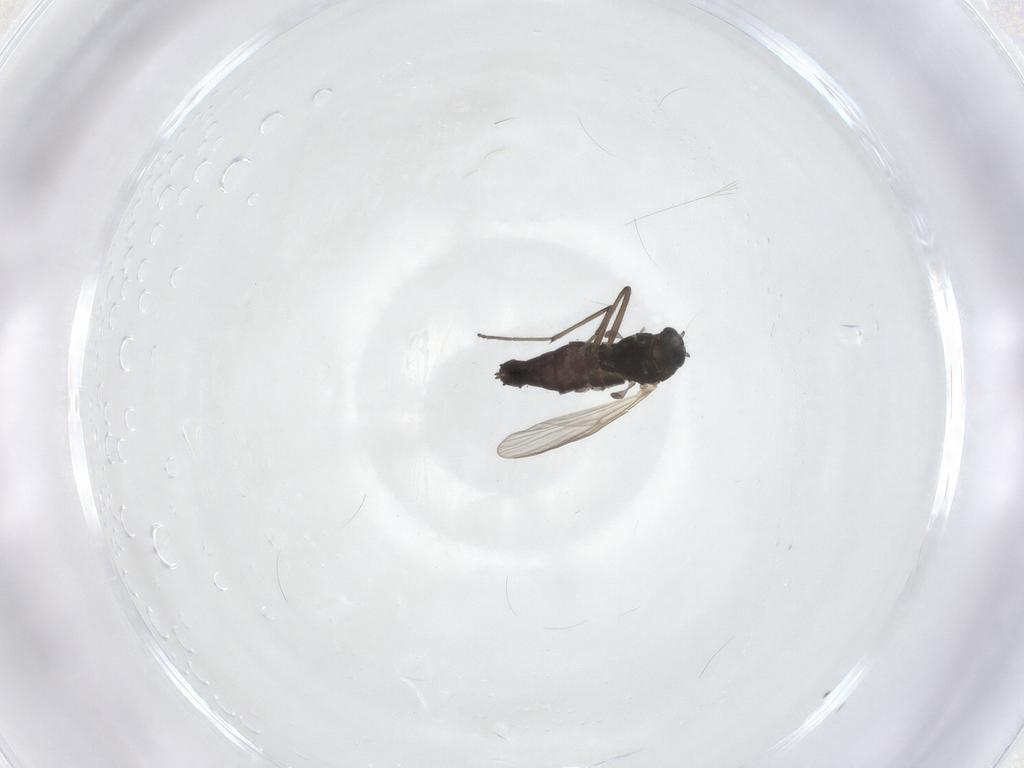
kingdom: Animalia
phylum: Arthropoda
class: Insecta
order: Diptera
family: Chironomidae
